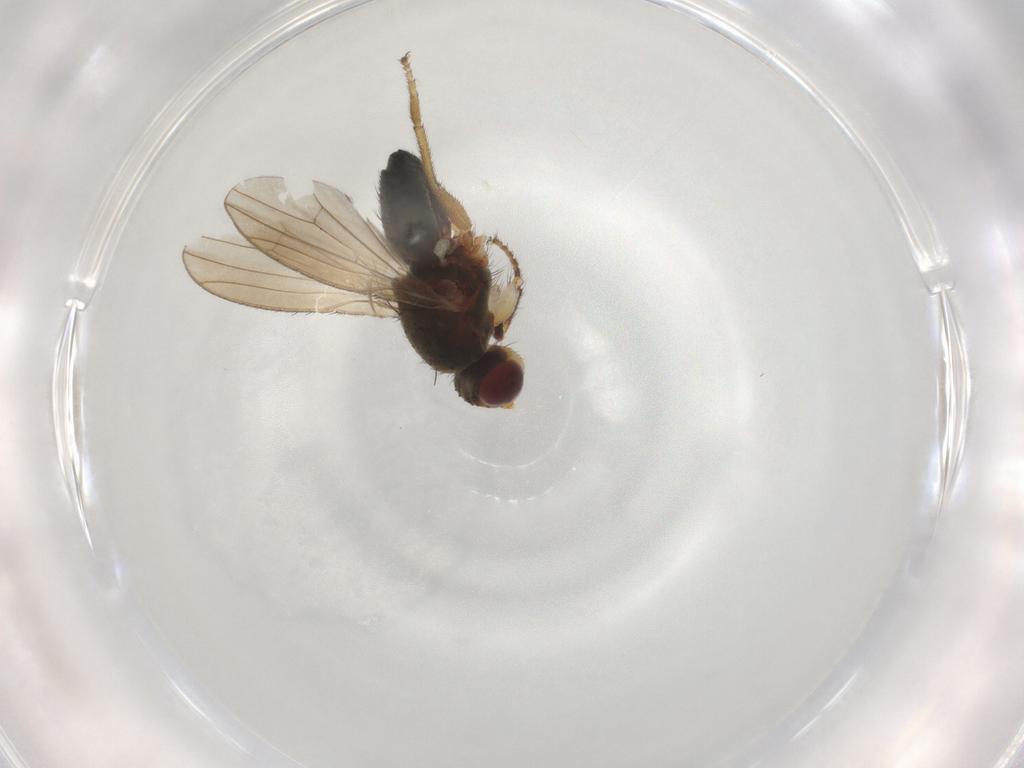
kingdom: Animalia
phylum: Arthropoda
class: Insecta
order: Diptera
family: Heleomyzidae
